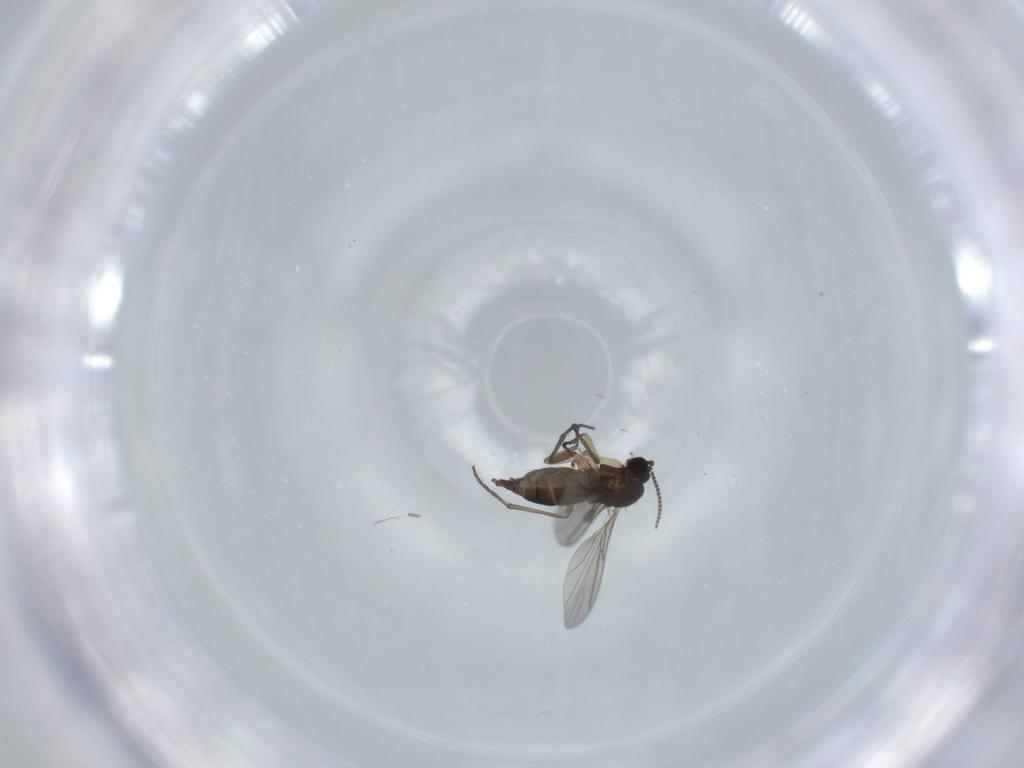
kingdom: Animalia
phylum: Arthropoda
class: Insecta
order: Diptera
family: Sciaridae
